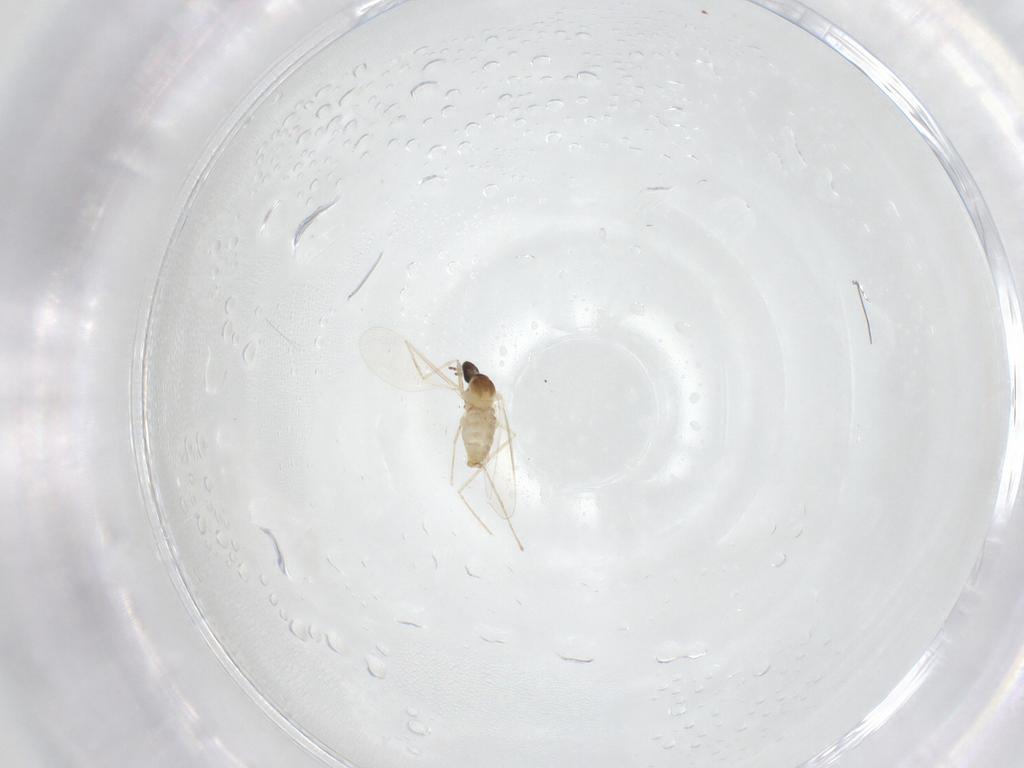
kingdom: Animalia
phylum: Arthropoda
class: Insecta
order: Diptera
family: Cecidomyiidae
